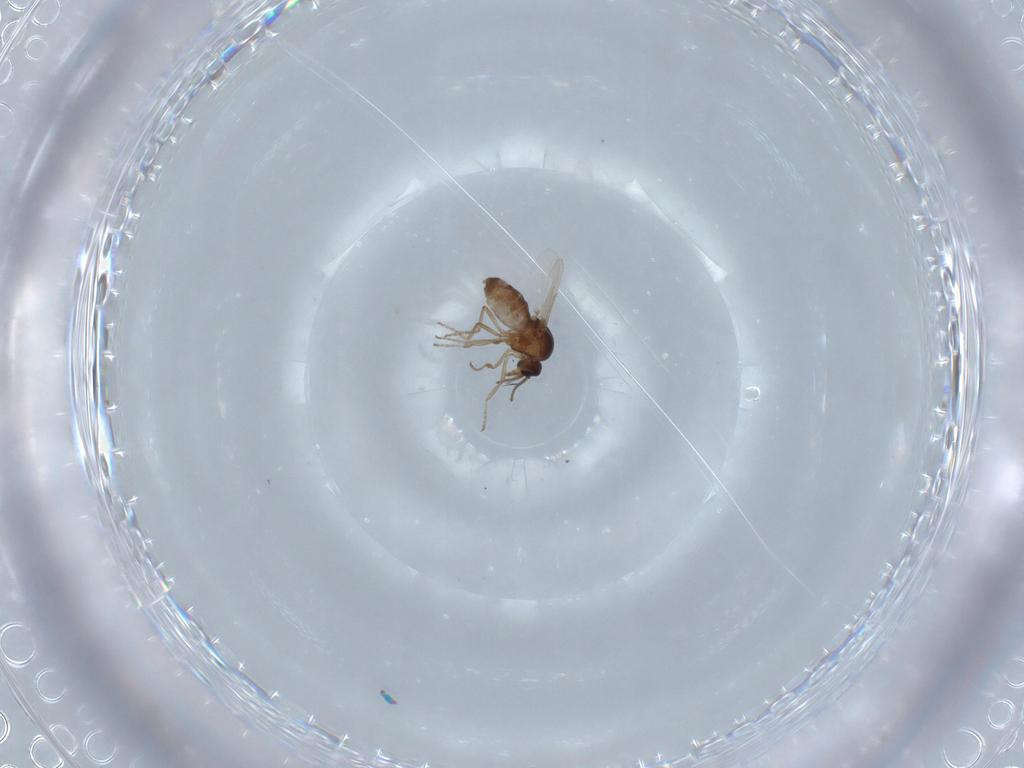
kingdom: Animalia
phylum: Arthropoda
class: Insecta
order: Diptera
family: Ceratopogonidae
